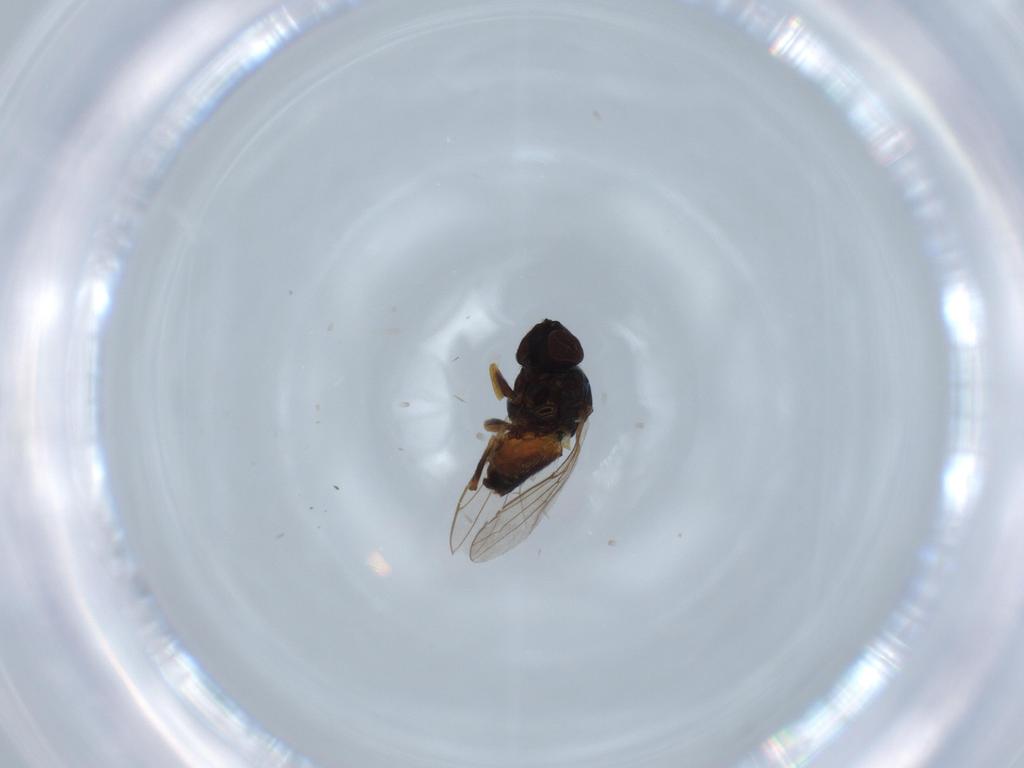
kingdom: Animalia
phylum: Arthropoda
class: Insecta
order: Diptera
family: Chloropidae
